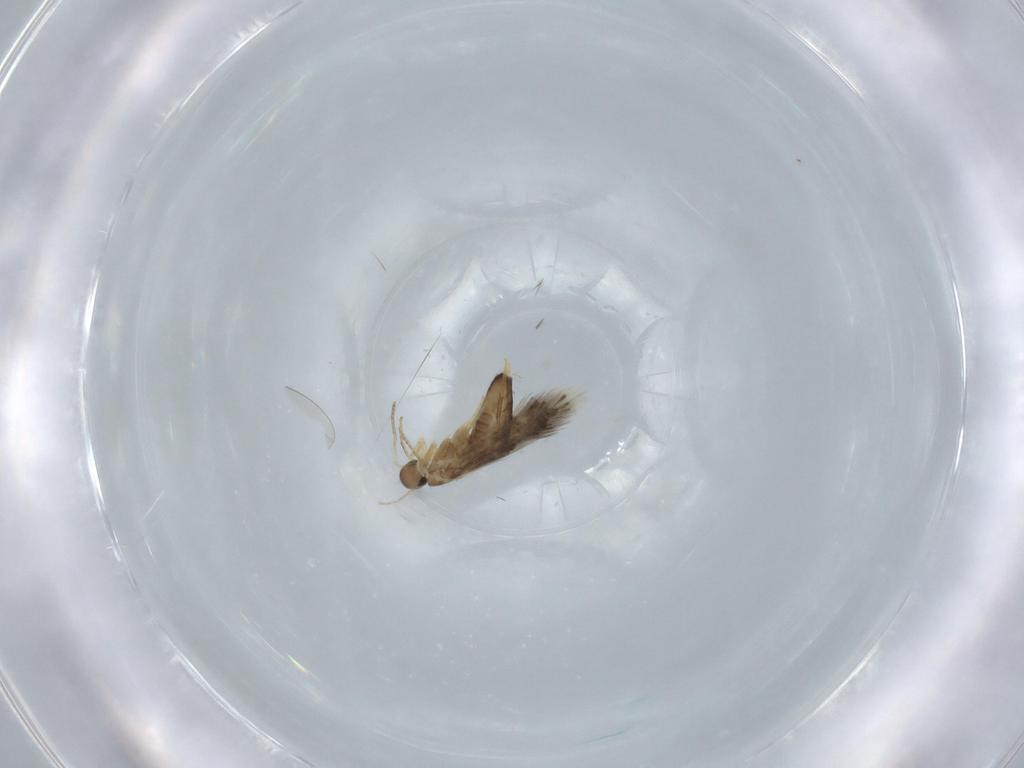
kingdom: Animalia
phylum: Arthropoda
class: Insecta
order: Lepidoptera
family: Heliozelidae
